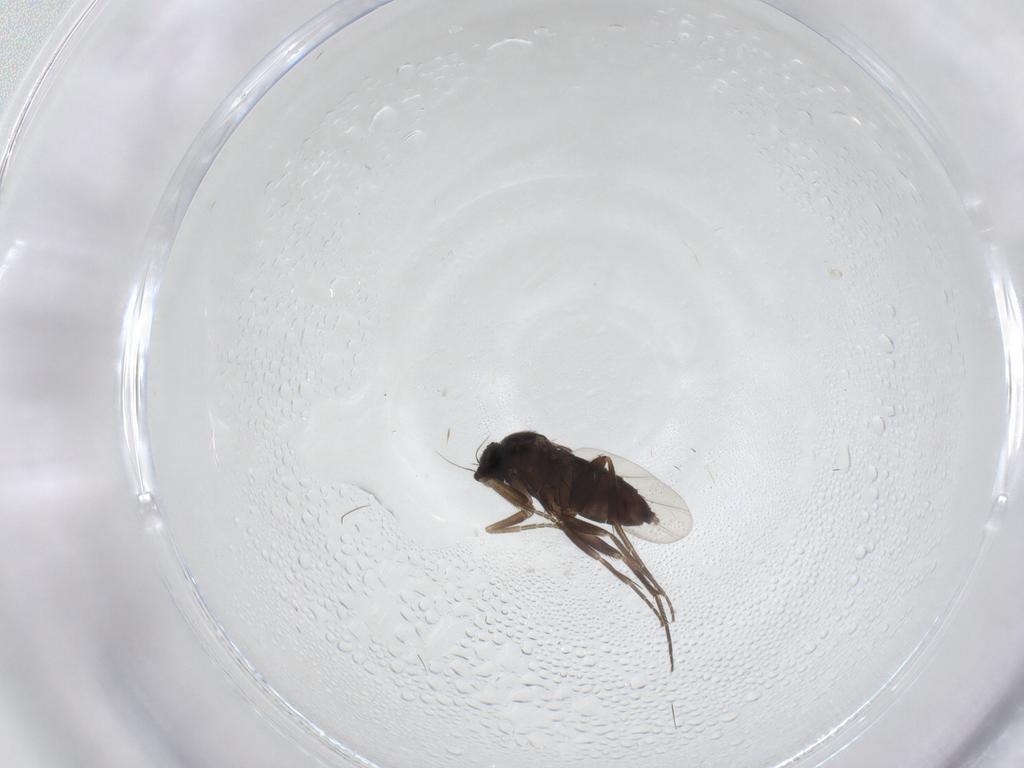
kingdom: Animalia
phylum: Arthropoda
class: Insecta
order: Diptera
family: Phoridae
